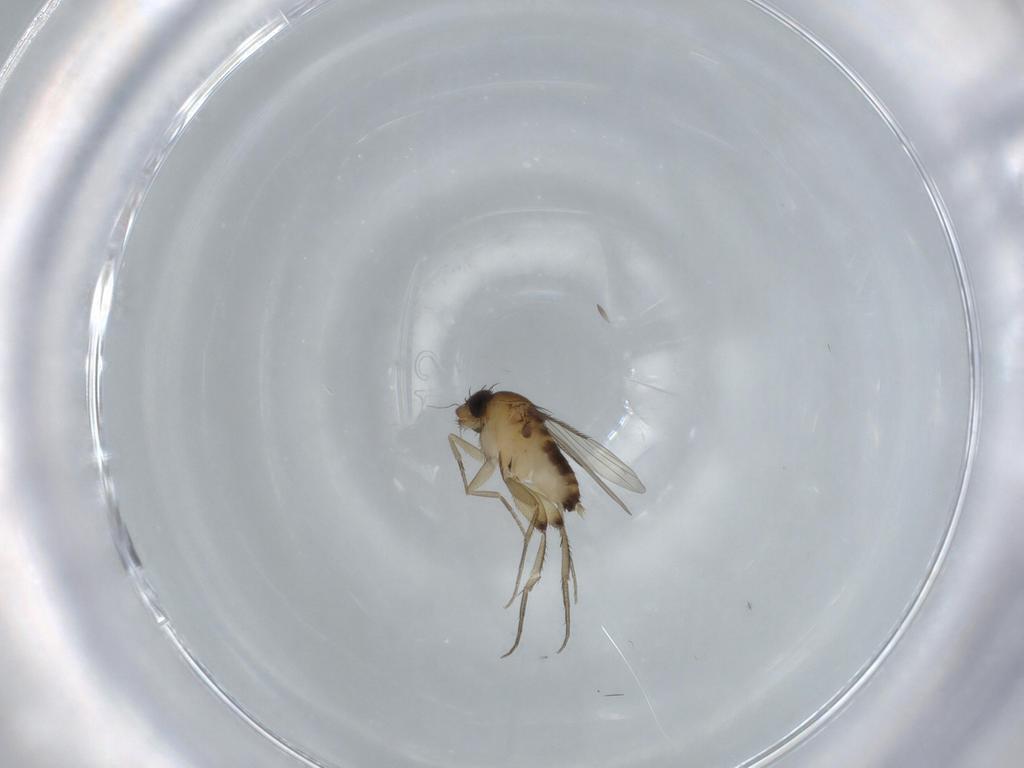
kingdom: Animalia
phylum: Arthropoda
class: Insecta
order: Diptera
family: Phoridae
